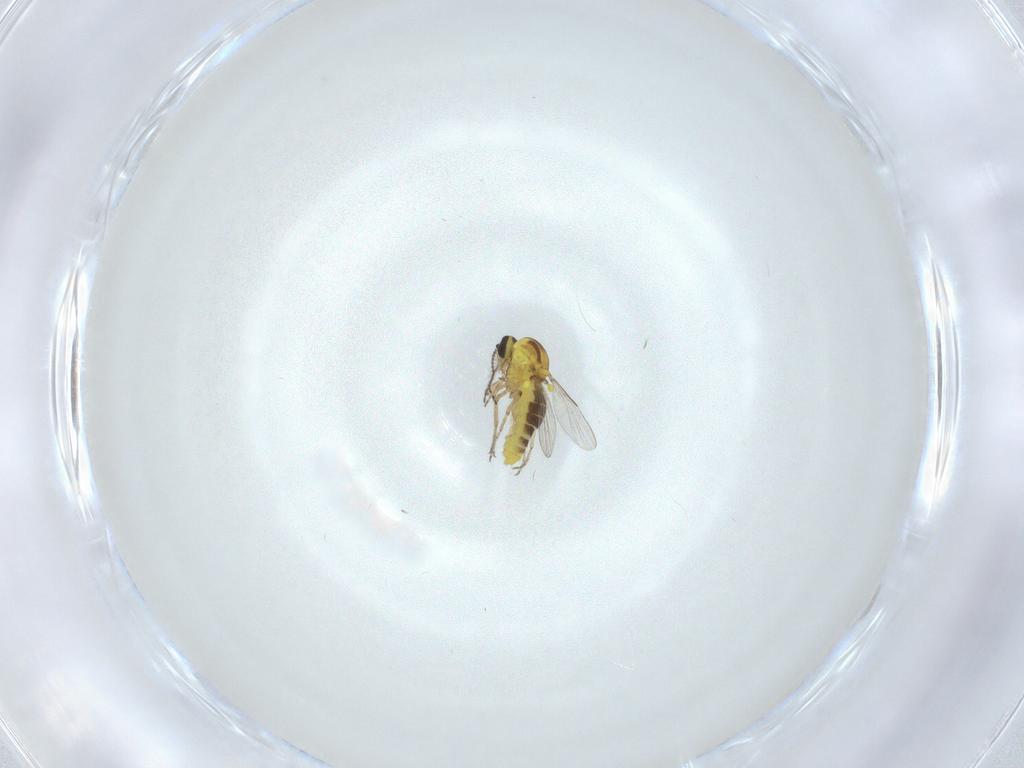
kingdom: Animalia
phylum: Arthropoda
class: Insecta
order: Diptera
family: Ceratopogonidae
